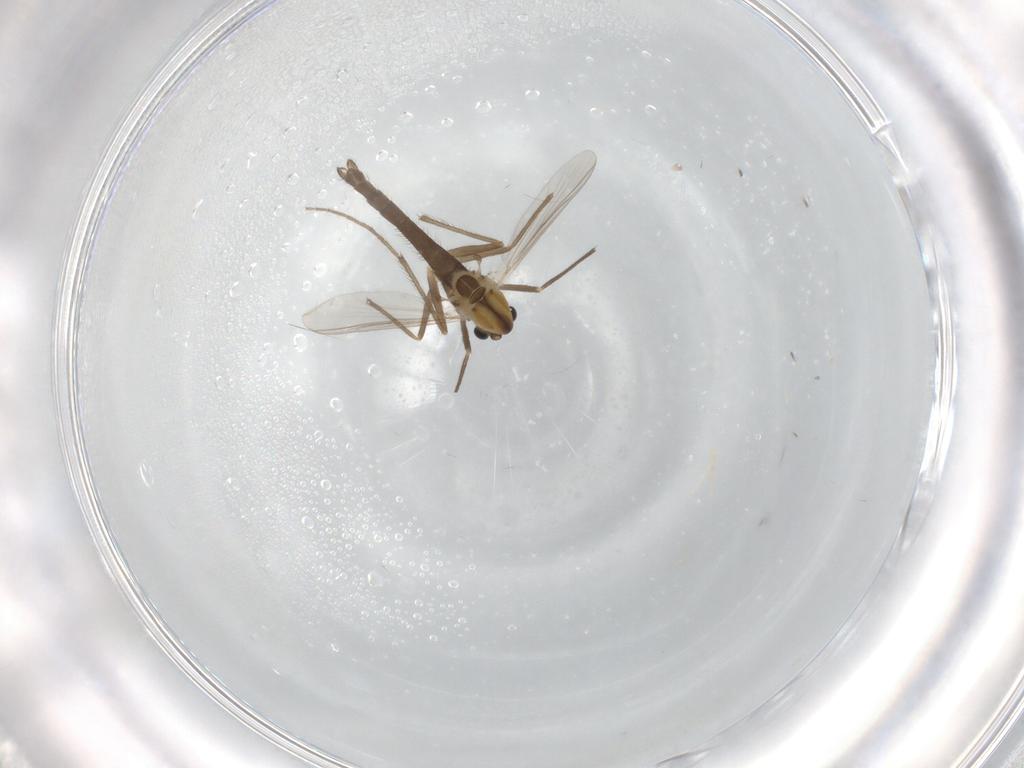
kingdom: Animalia
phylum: Arthropoda
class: Insecta
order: Diptera
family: Chironomidae
